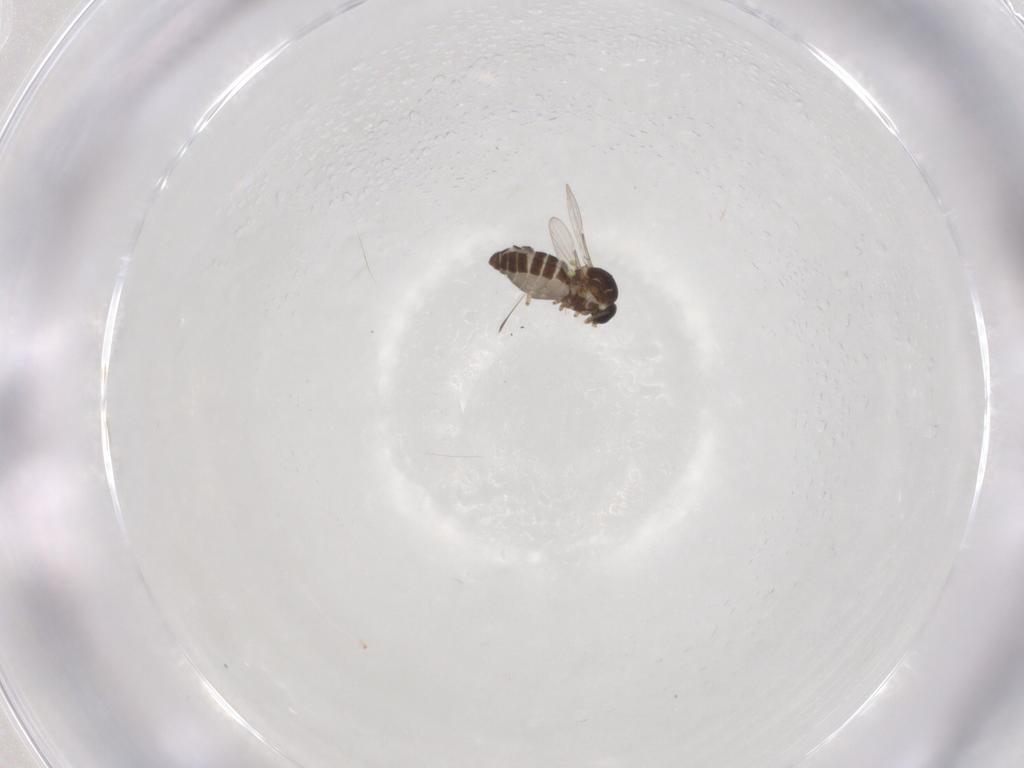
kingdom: Animalia
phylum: Arthropoda
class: Insecta
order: Diptera
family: Ceratopogonidae
